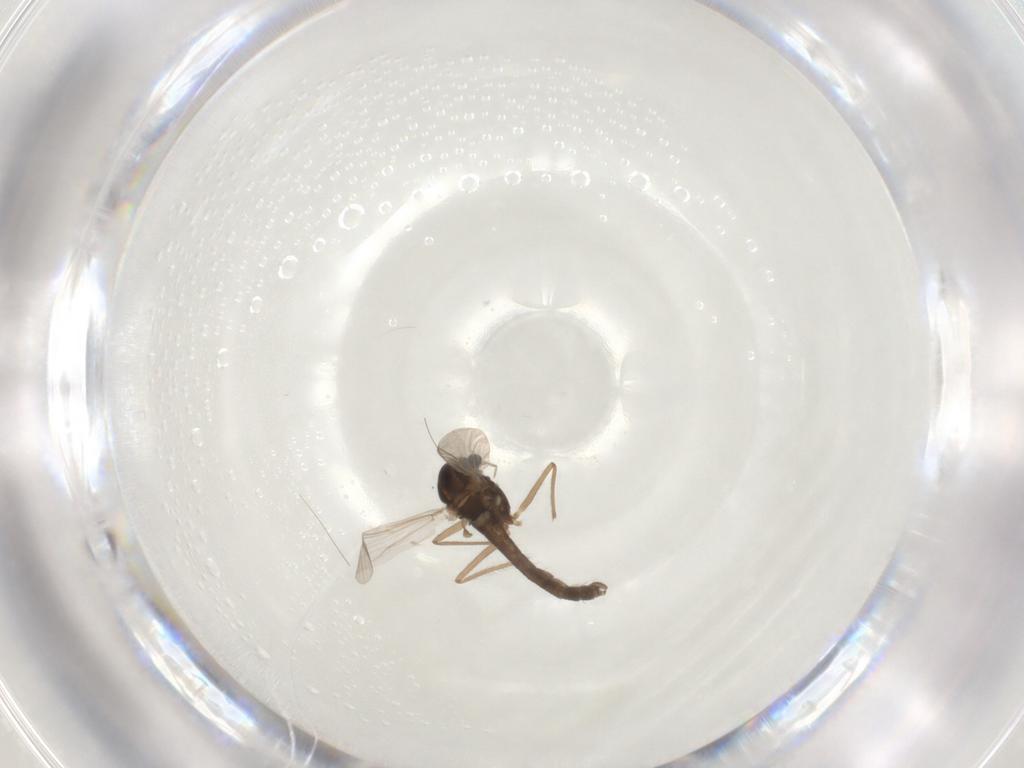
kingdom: Animalia
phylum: Arthropoda
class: Insecta
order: Diptera
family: Chironomidae
